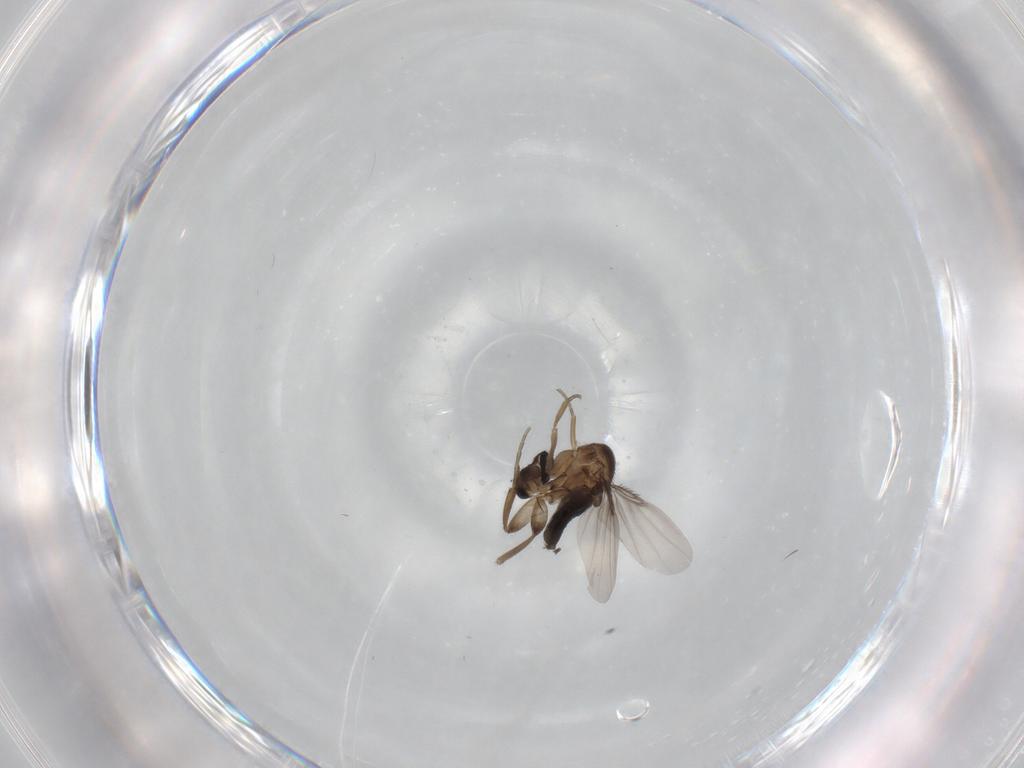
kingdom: Animalia
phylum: Arthropoda
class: Insecta
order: Diptera
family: Phoridae
